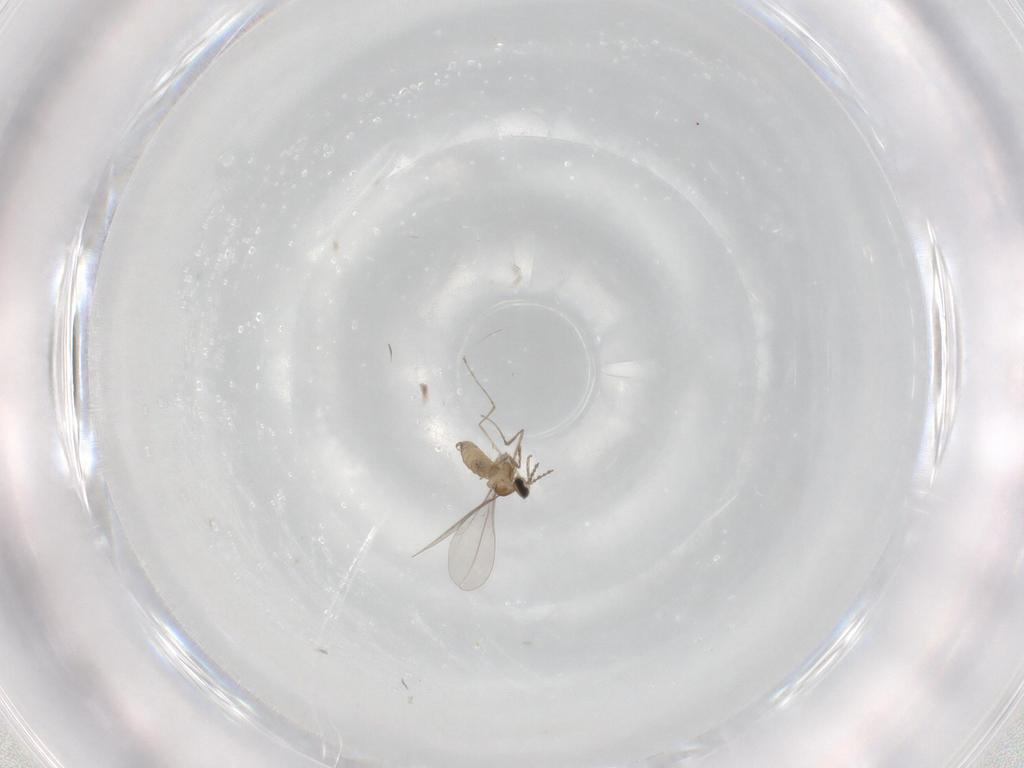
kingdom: Animalia
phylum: Arthropoda
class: Insecta
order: Diptera
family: Cecidomyiidae
